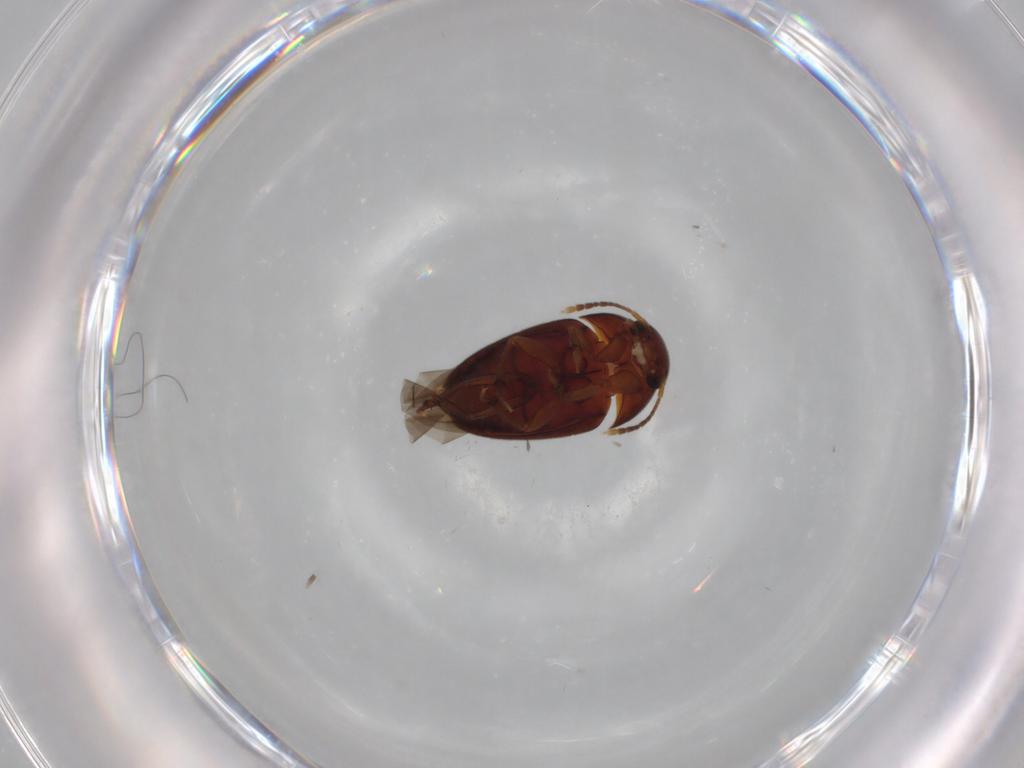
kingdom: Animalia
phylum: Arthropoda
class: Insecta
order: Coleoptera
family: Leiodidae
